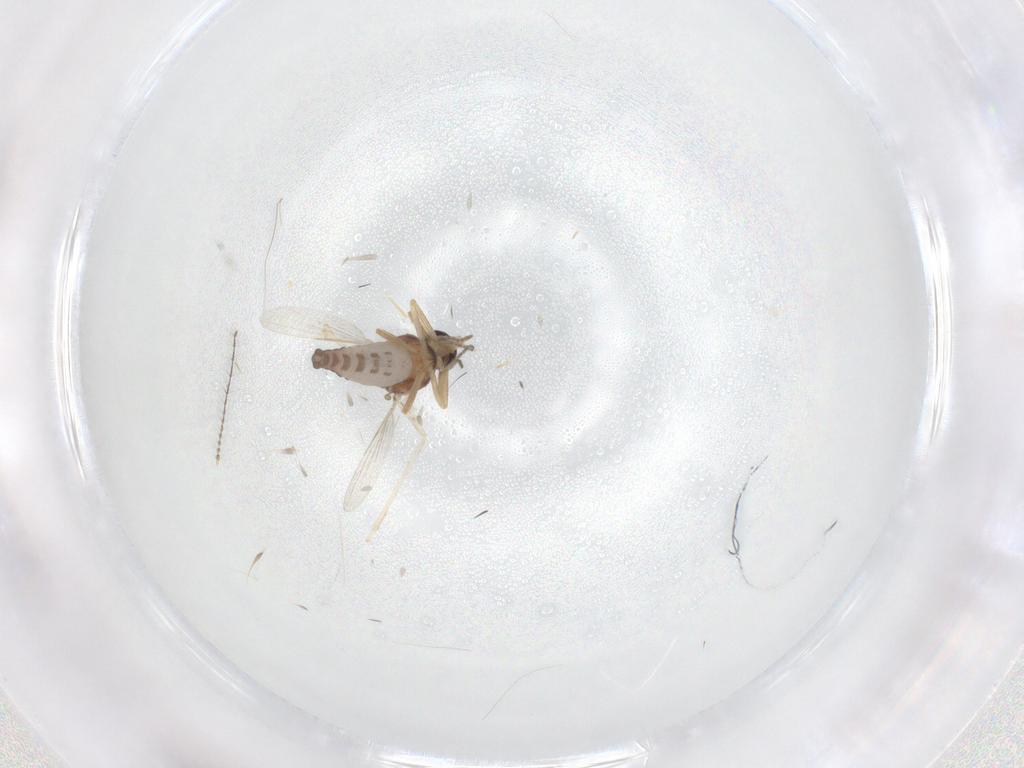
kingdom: Animalia
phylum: Arthropoda
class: Insecta
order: Diptera
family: Ceratopogonidae
